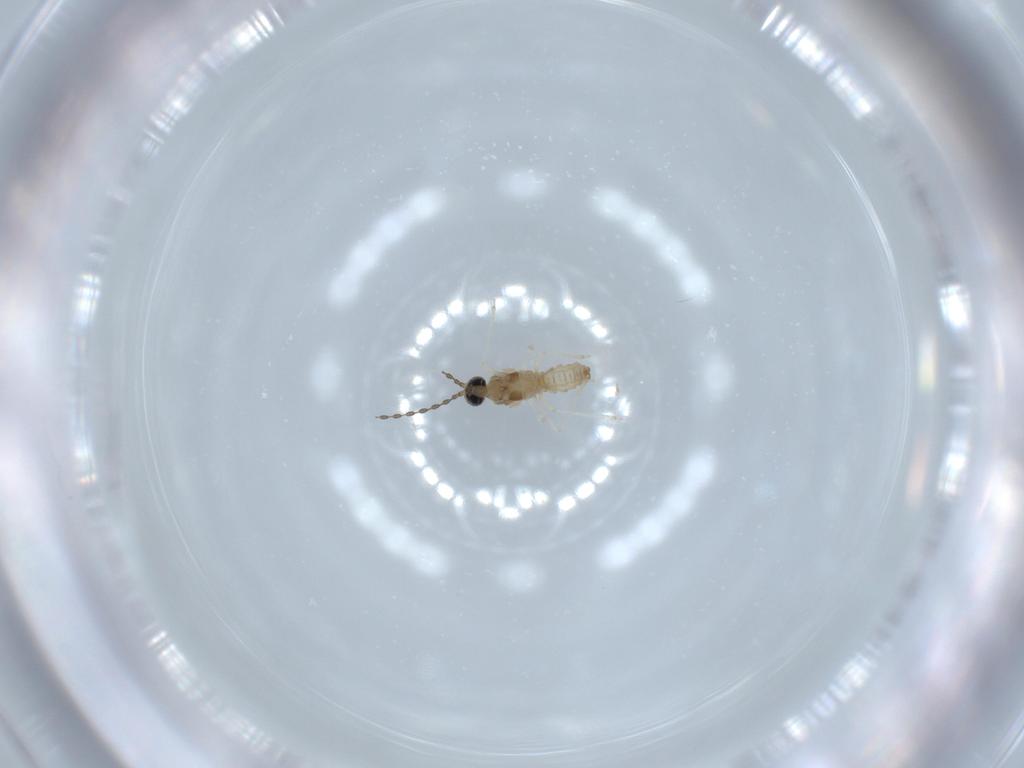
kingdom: Animalia
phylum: Arthropoda
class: Insecta
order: Diptera
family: Cecidomyiidae
